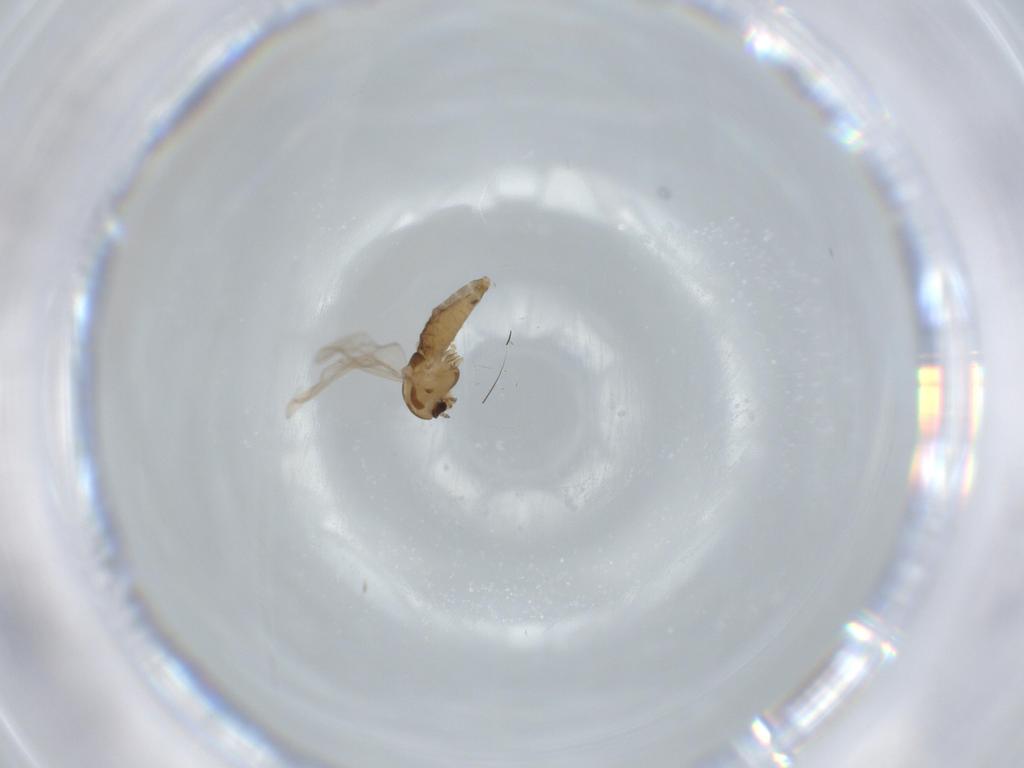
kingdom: Animalia
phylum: Arthropoda
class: Insecta
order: Diptera
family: Chironomidae
